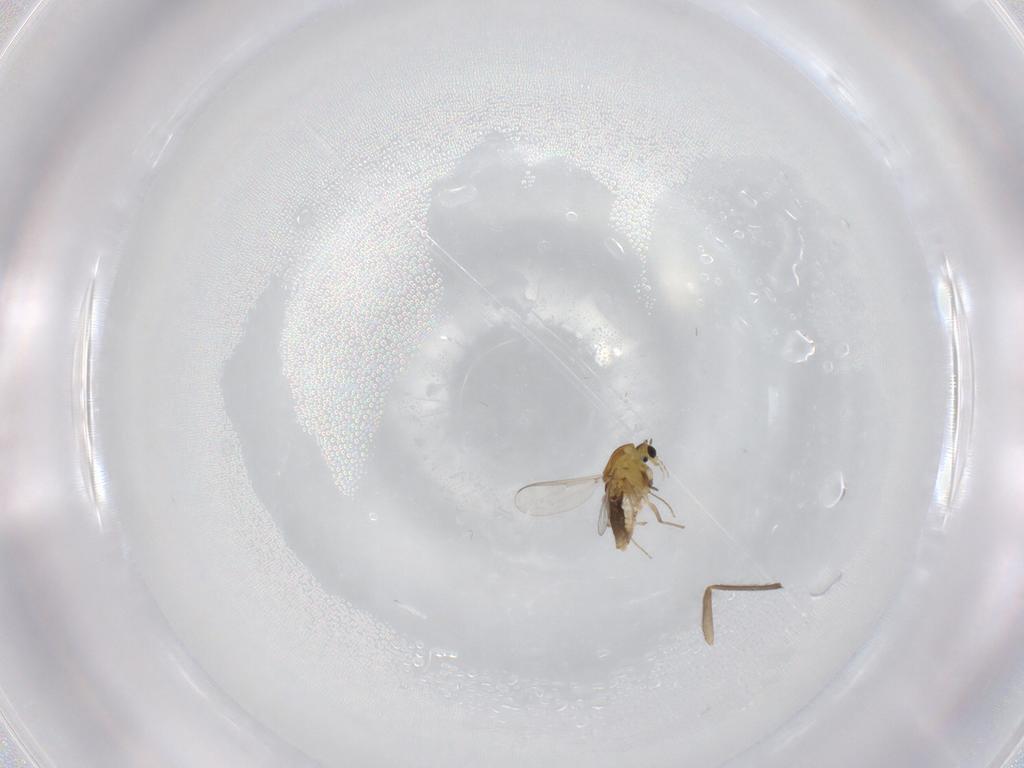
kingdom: Animalia
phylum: Arthropoda
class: Insecta
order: Diptera
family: Chironomidae
